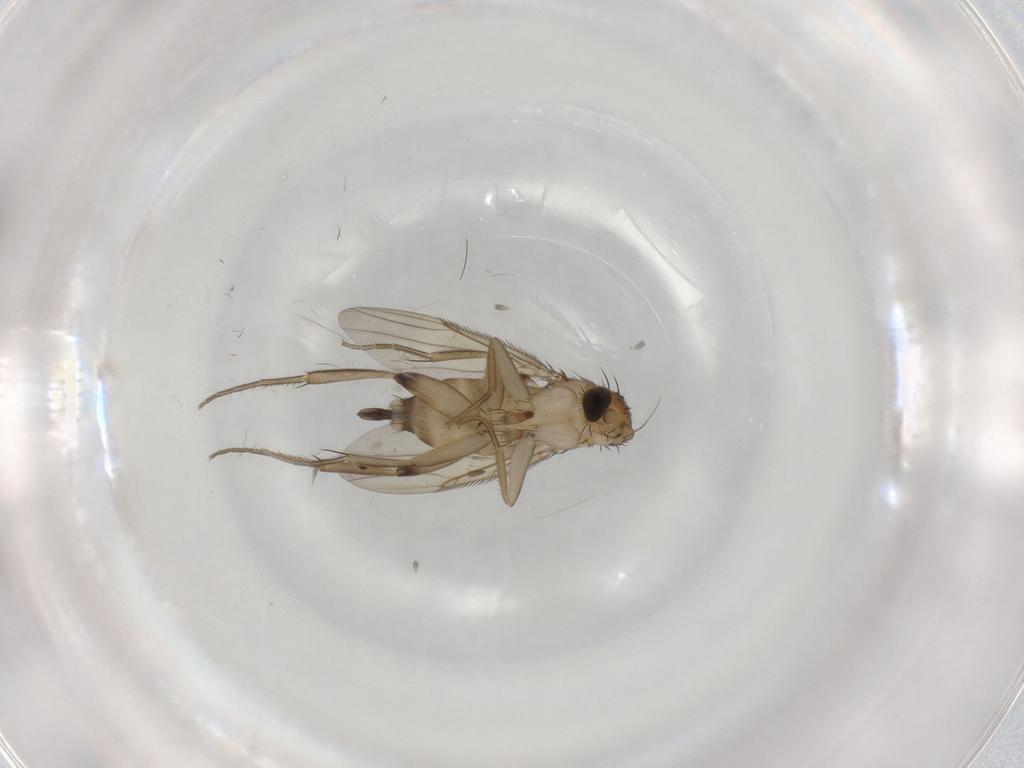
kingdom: Animalia
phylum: Arthropoda
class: Insecta
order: Diptera
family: Phoridae
